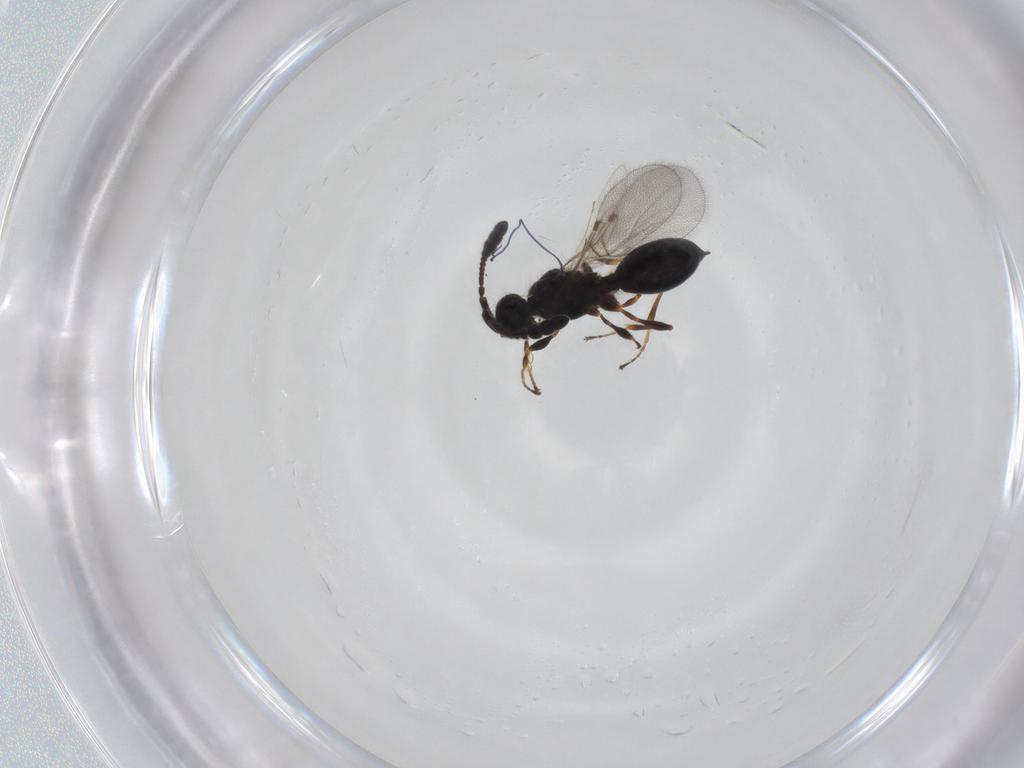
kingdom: Animalia
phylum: Arthropoda
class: Insecta
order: Hymenoptera
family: Diapriidae
